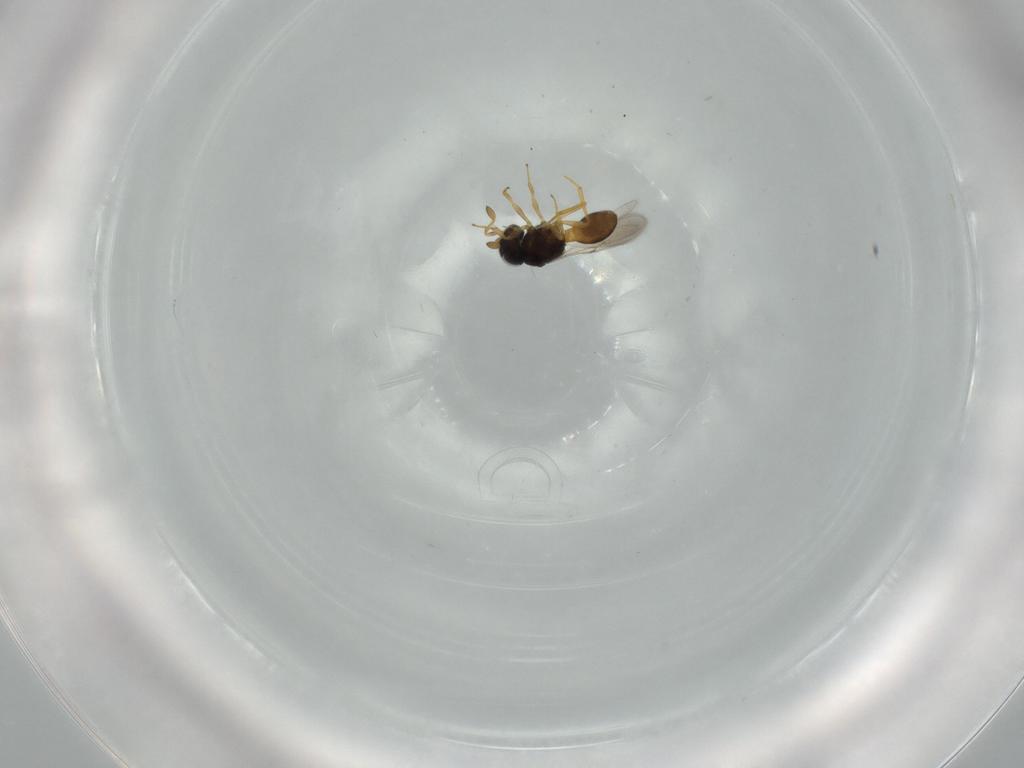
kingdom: Animalia
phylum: Arthropoda
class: Insecta
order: Hymenoptera
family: Scelionidae
